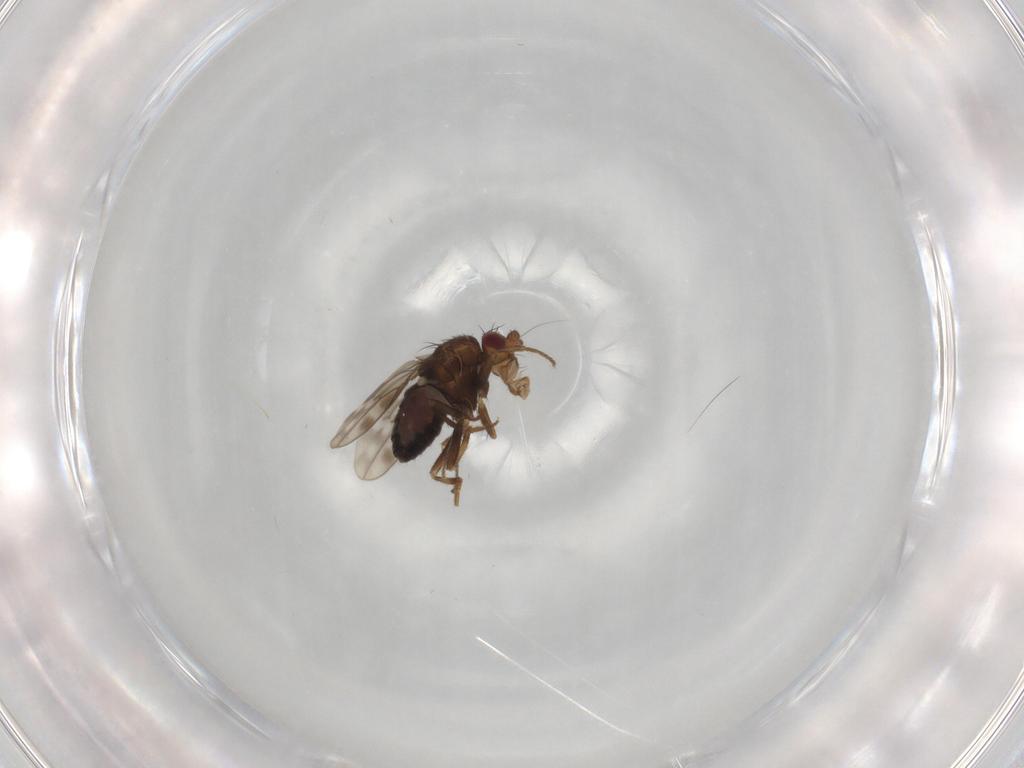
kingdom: Animalia
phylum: Arthropoda
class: Insecta
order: Diptera
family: Sphaeroceridae
